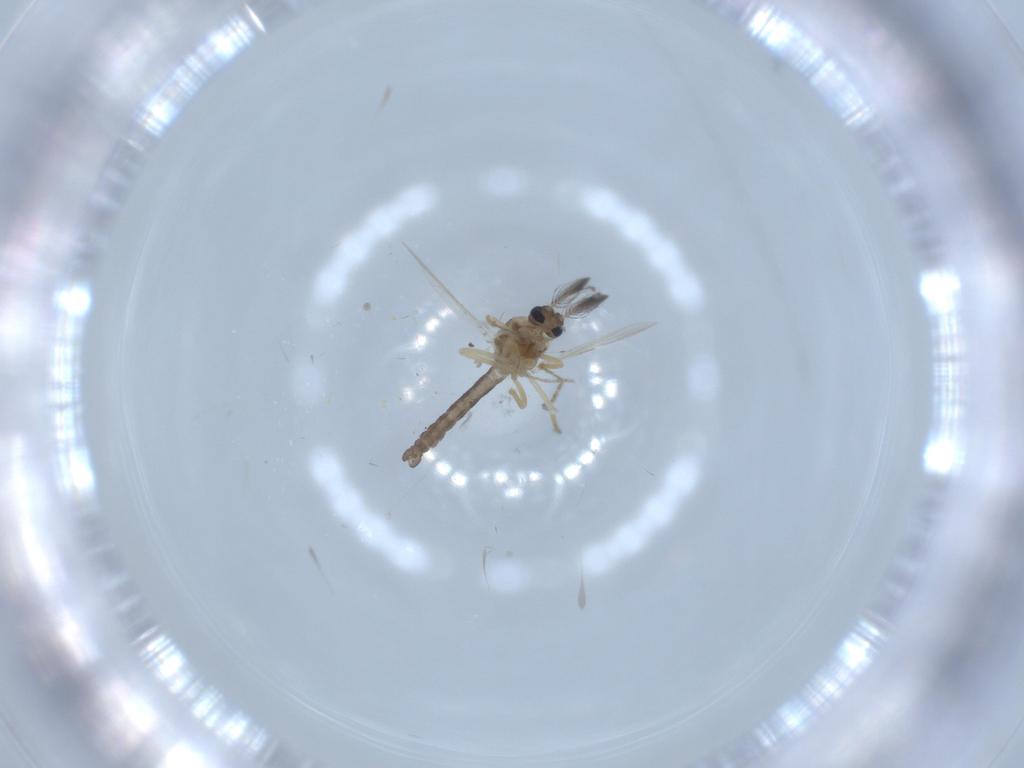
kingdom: Animalia
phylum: Arthropoda
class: Insecta
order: Diptera
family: Ceratopogonidae
